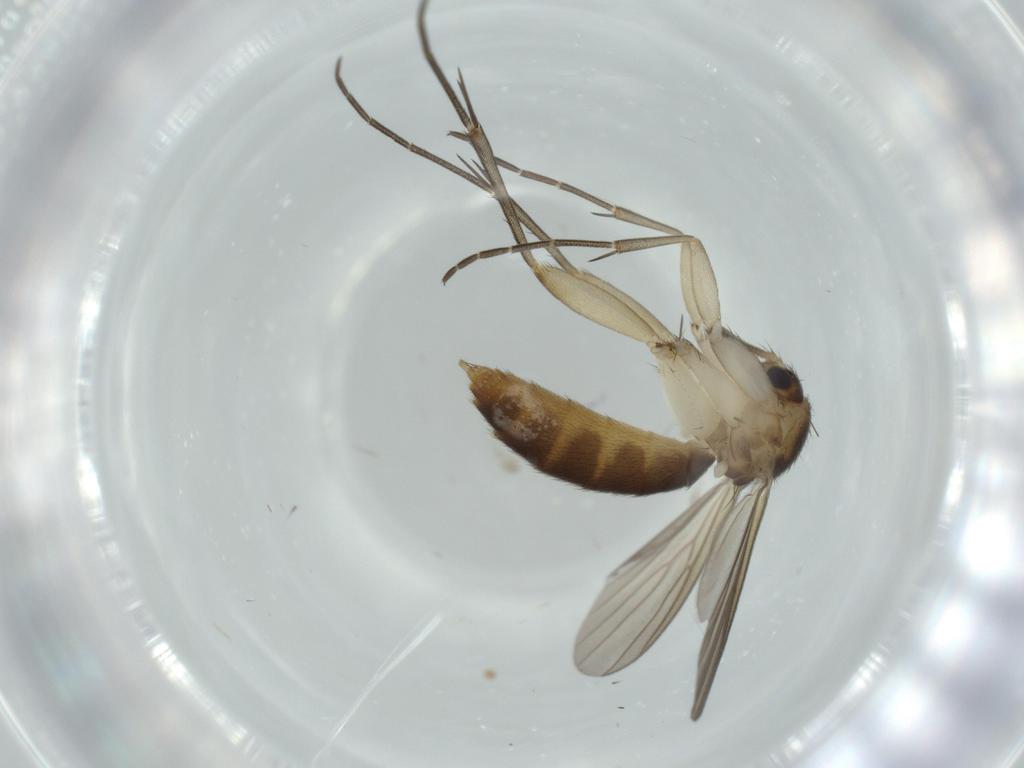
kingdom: Animalia
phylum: Arthropoda
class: Insecta
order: Diptera
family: Mycetophilidae
